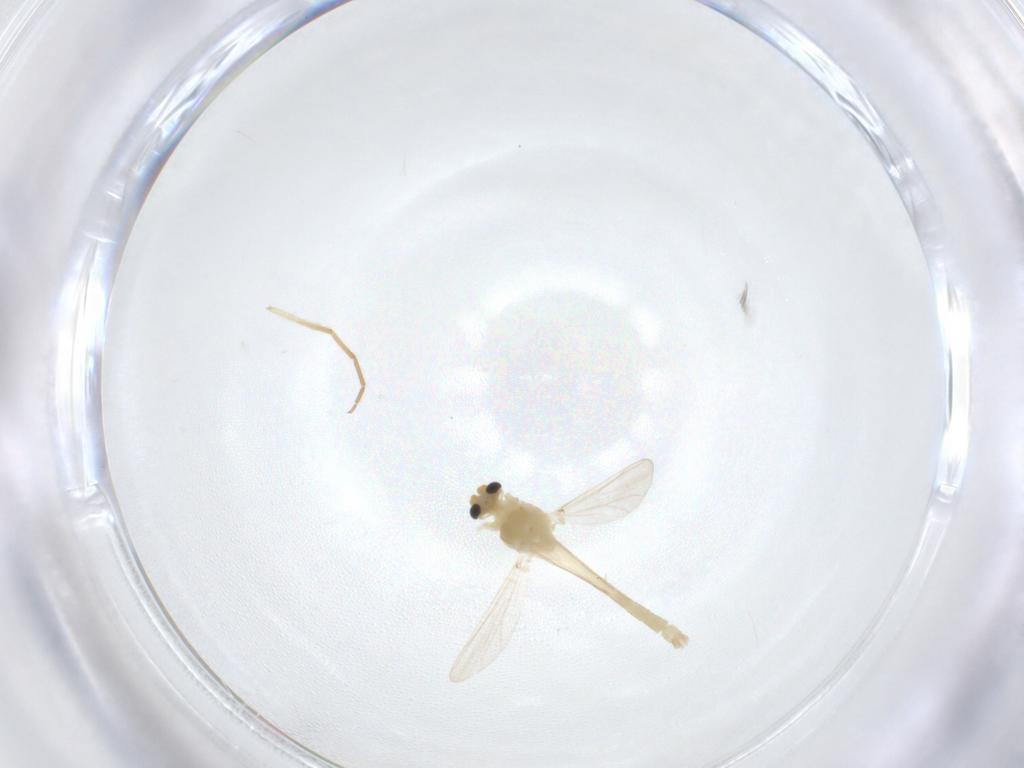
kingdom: Animalia
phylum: Arthropoda
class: Insecta
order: Diptera
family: Chironomidae
